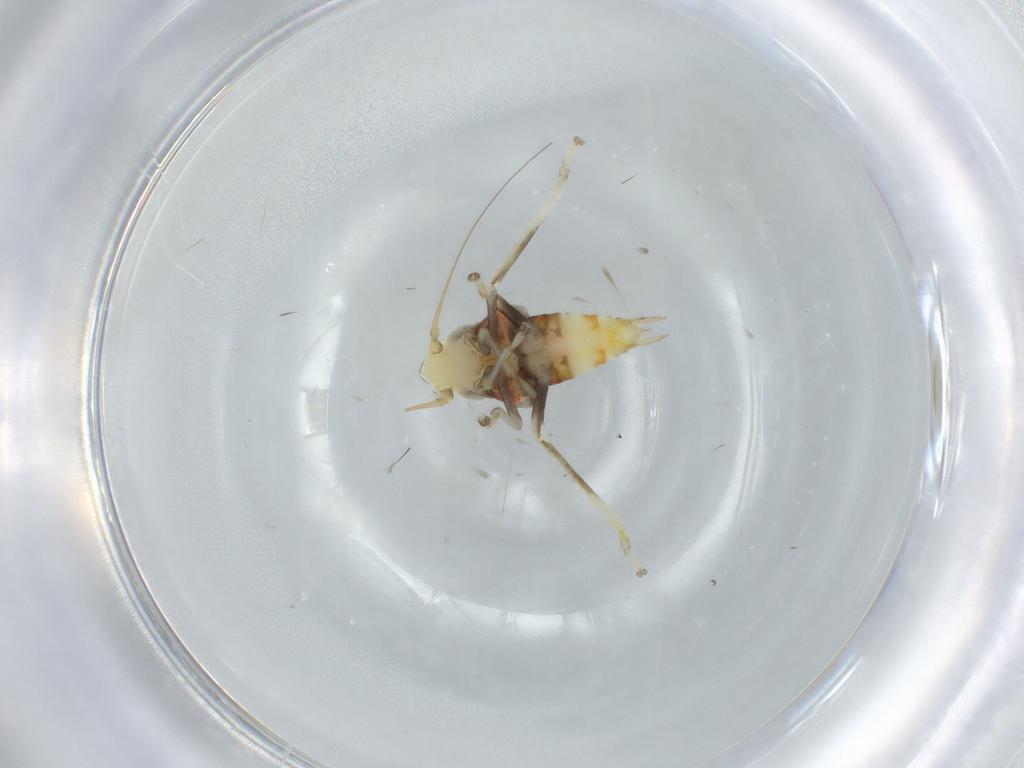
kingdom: Animalia
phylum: Arthropoda
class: Insecta
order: Hemiptera
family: Cicadellidae
